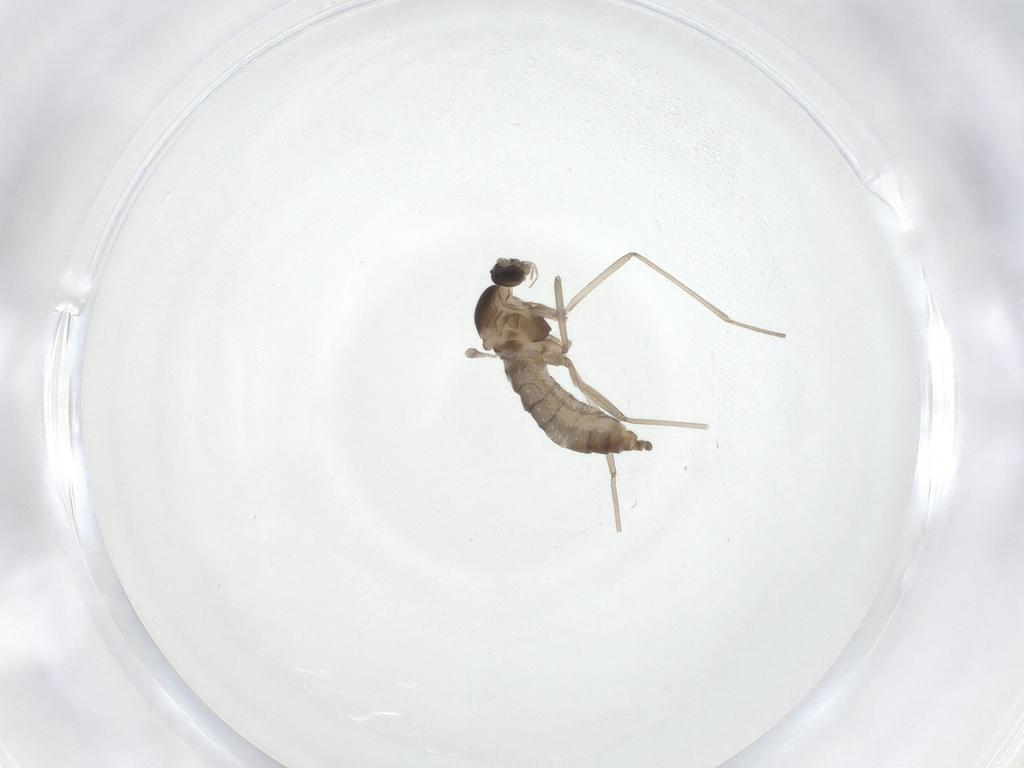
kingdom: Animalia
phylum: Arthropoda
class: Insecta
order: Diptera
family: Cecidomyiidae
